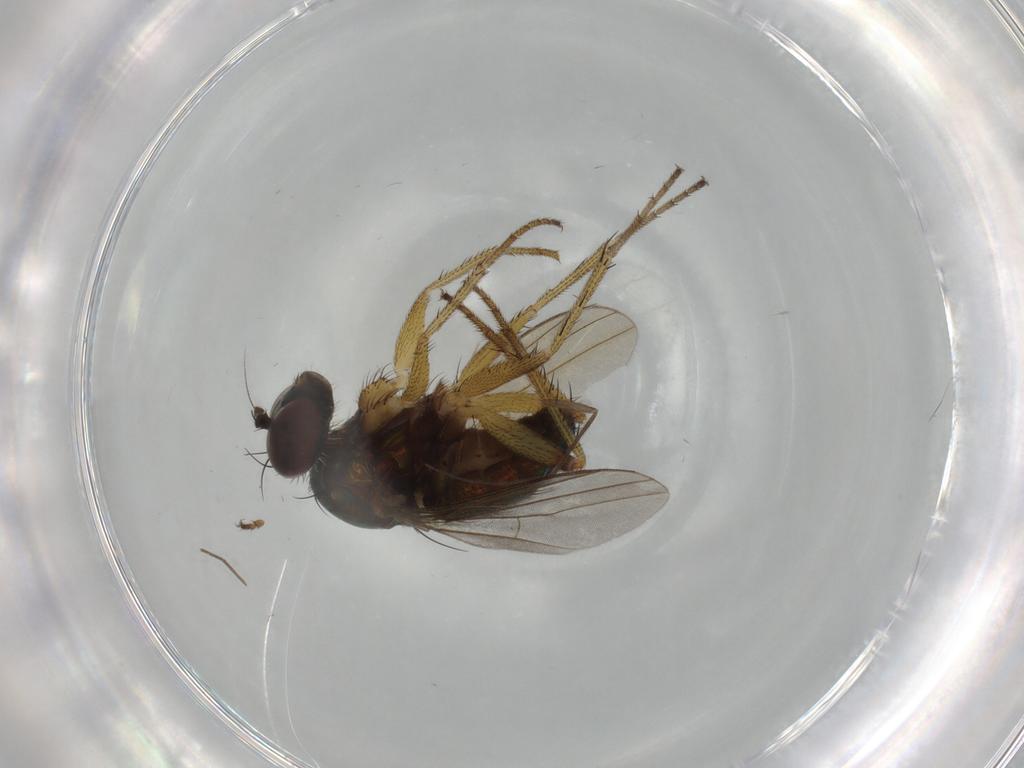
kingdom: Animalia
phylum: Arthropoda
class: Insecta
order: Diptera
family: Dolichopodidae
